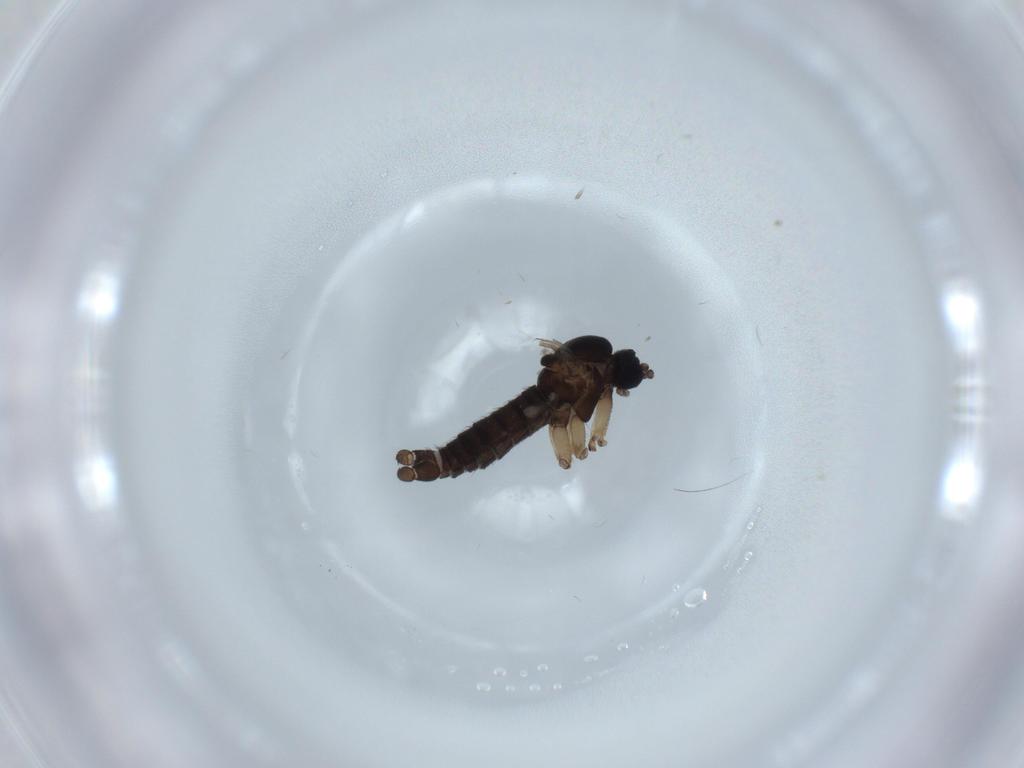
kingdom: Animalia
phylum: Arthropoda
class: Insecta
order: Diptera
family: Sciaridae
